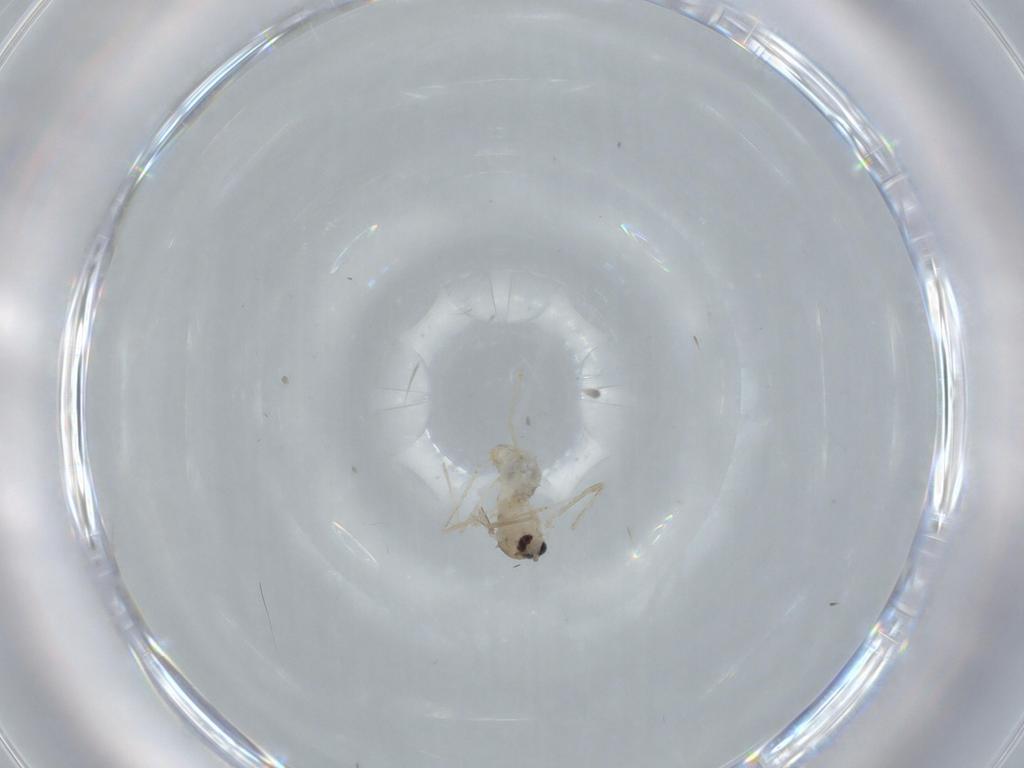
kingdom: Animalia
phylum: Arthropoda
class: Insecta
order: Diptera
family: Cecidomyiidae
